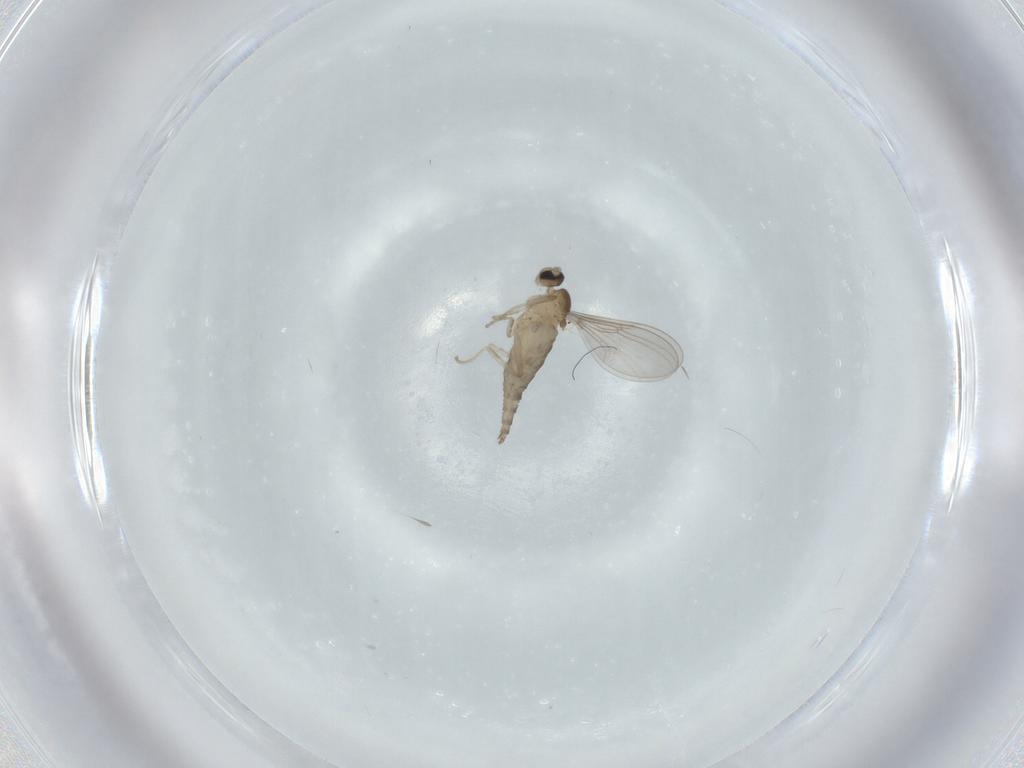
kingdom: Animalia
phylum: Arthropoda
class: Insecta
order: Diptera
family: Cecidomyiidae
